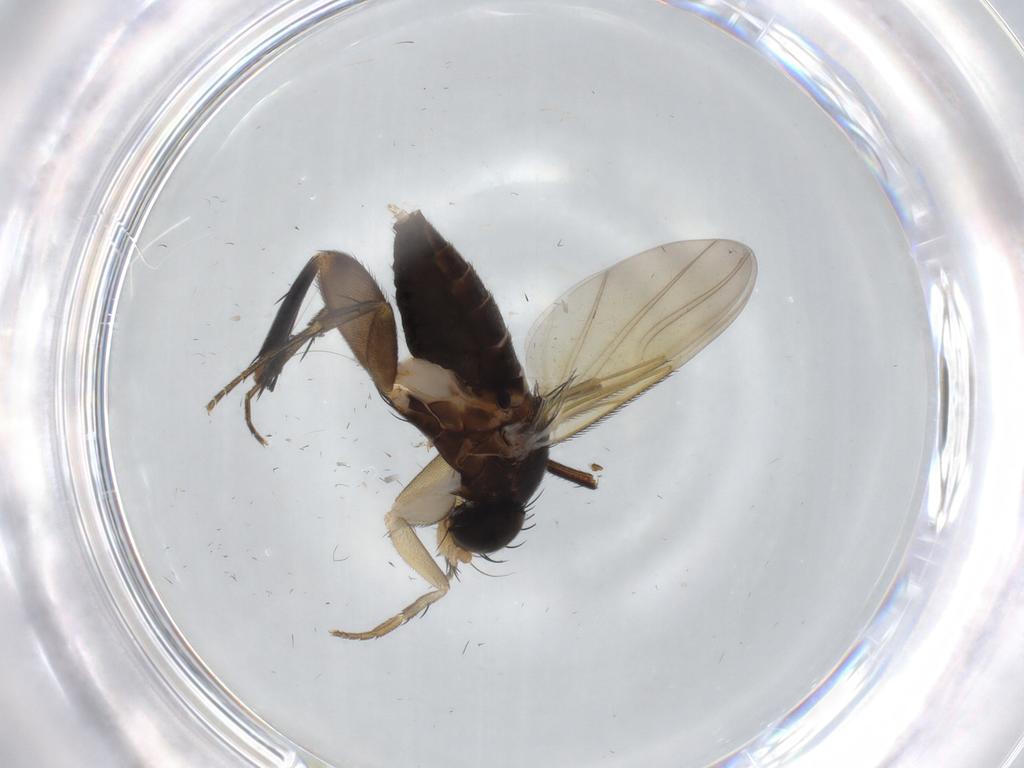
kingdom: Animalia
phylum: Arthropoda
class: Insecta
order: Diptera
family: Phoridae
